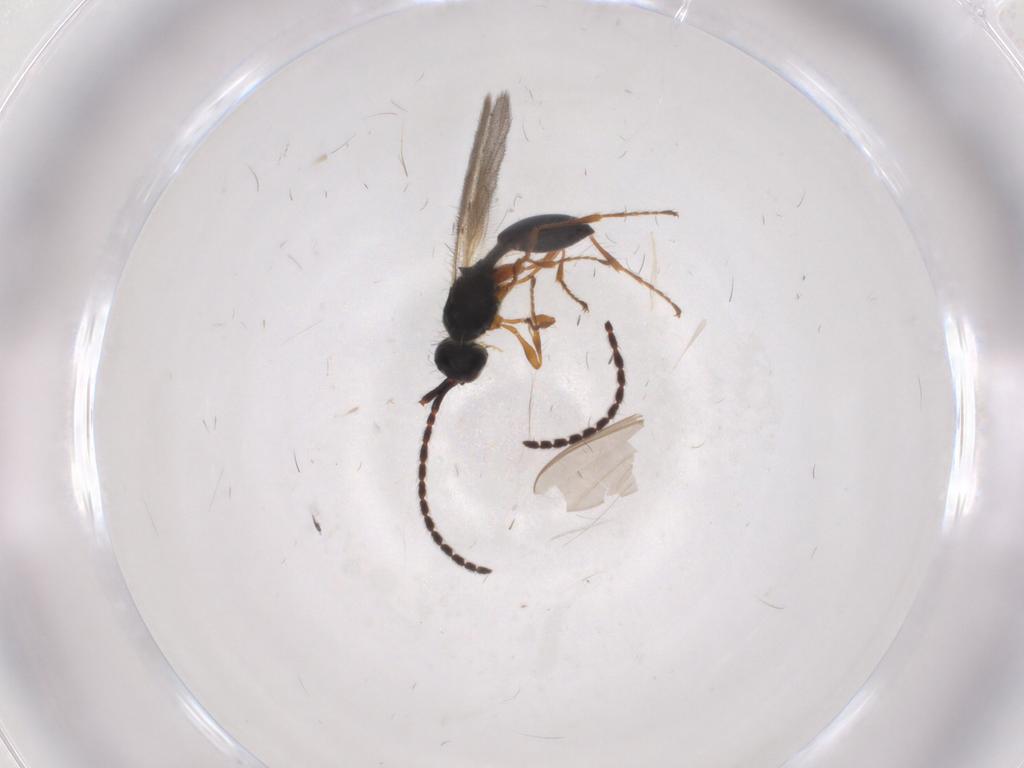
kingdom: Animalia
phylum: Arthropoda
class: Insecta
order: Hymenoptera
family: Diapriidae
